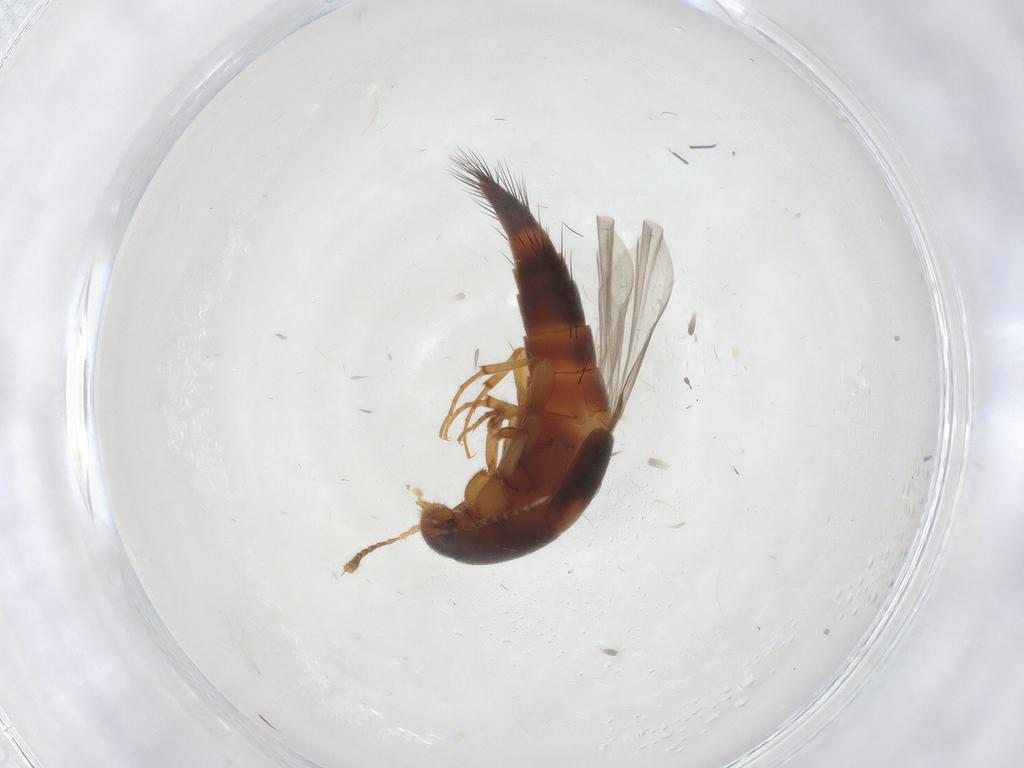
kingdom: Animalia
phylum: Arthropoda
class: Insecta
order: Coleoptera
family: Staphylinidae
